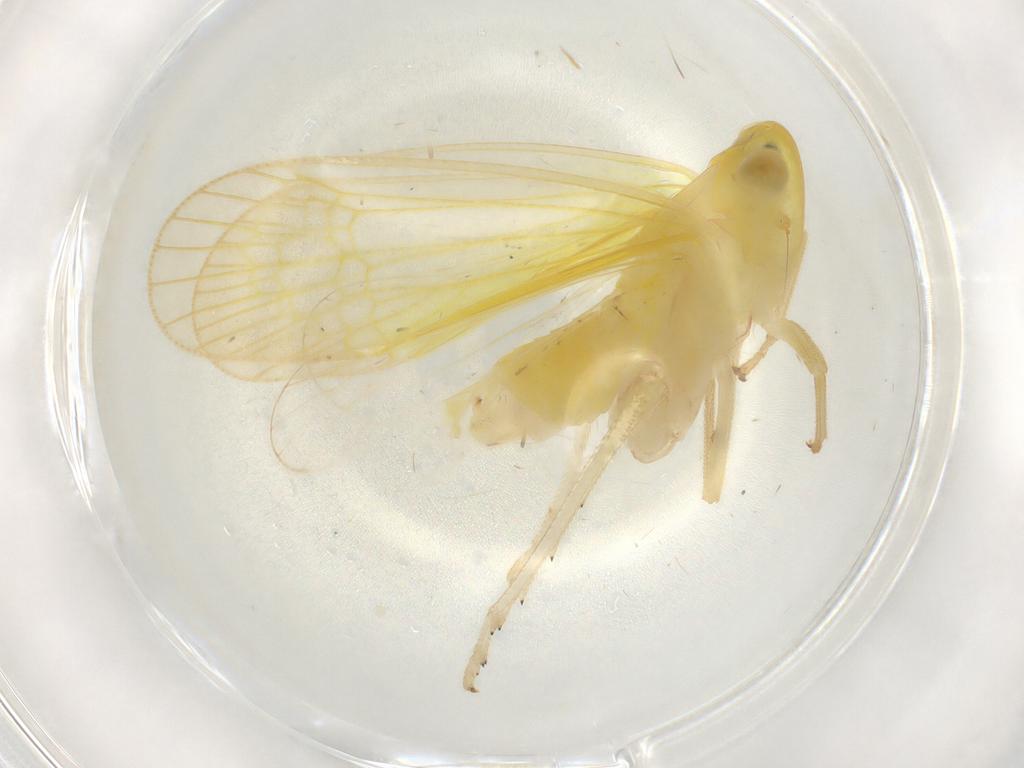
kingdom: Animalia
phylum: Arthropoda
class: Insecta
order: Hemiptera
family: Tropiduchidae
